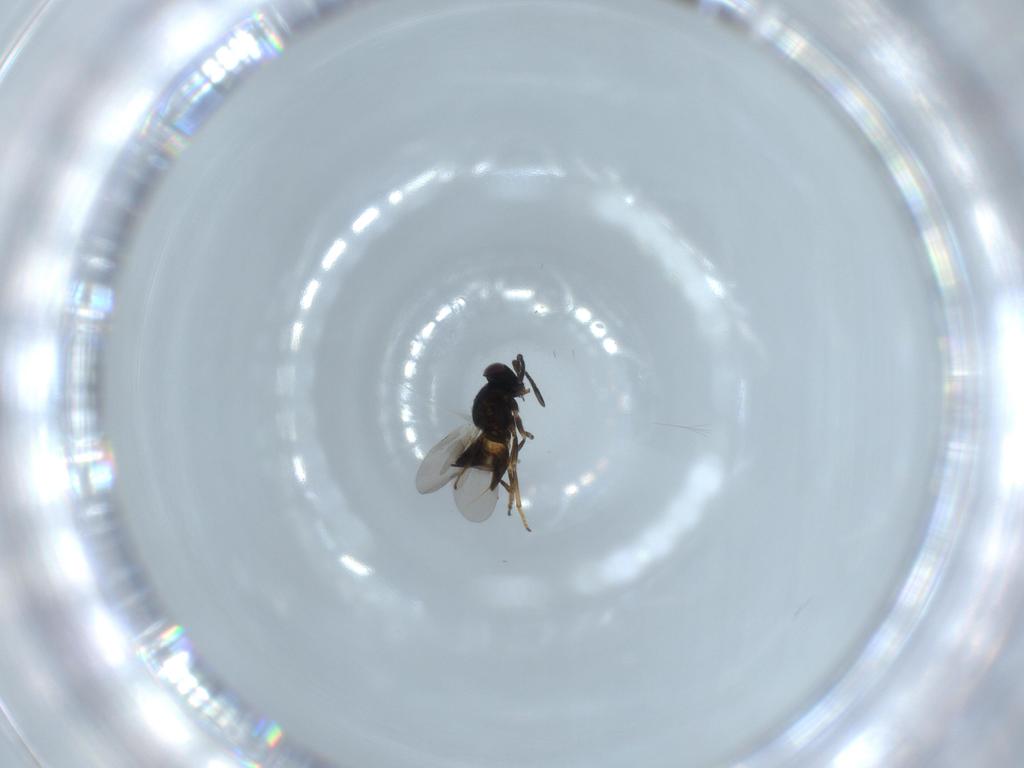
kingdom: Animalia
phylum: Arthropoda
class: Insecta
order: Hymenoptera
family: Encyrtidae
